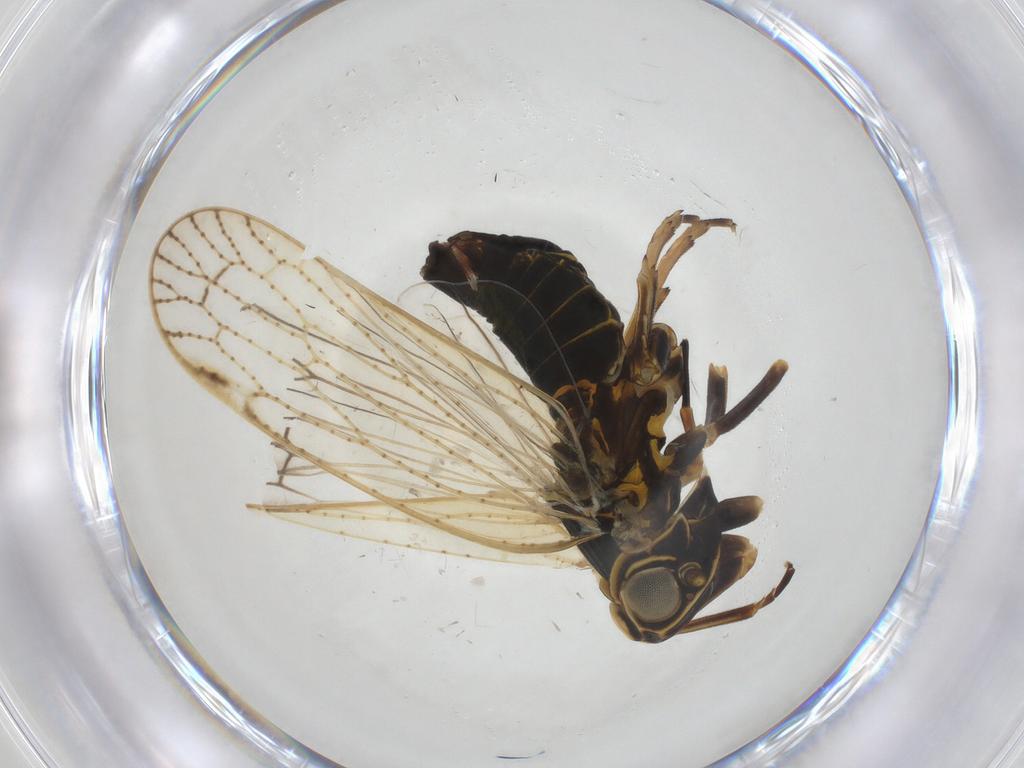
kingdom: Animalia
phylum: Arthropoda
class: Insecta
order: Hemiptera
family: Cixiidae
